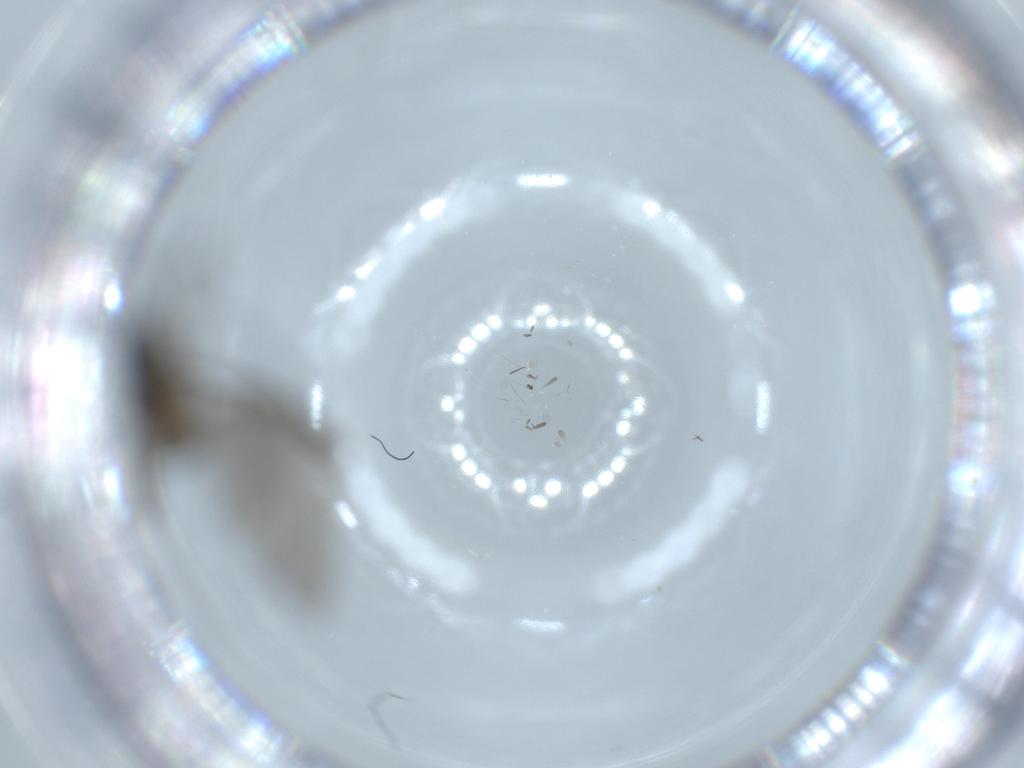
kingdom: Animalia
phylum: Arthropoda
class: Insecta
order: Diptera
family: Sciaridae
